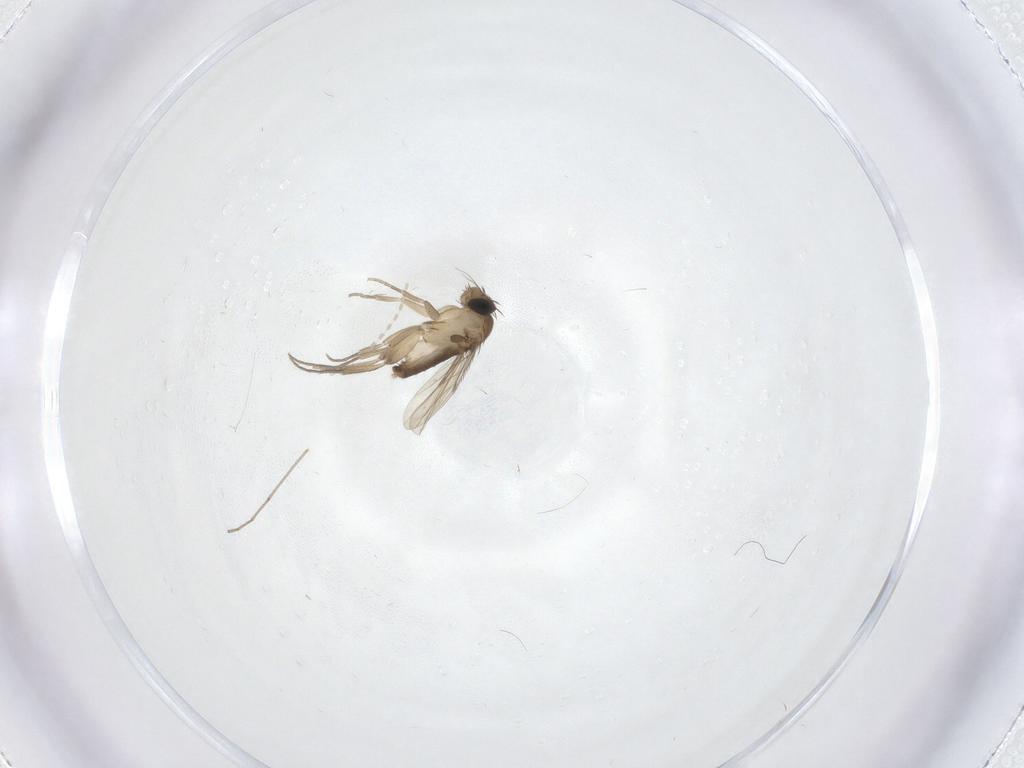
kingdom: Animalia
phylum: Arthropoda
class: Insecta
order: Diptera
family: Phoridae
